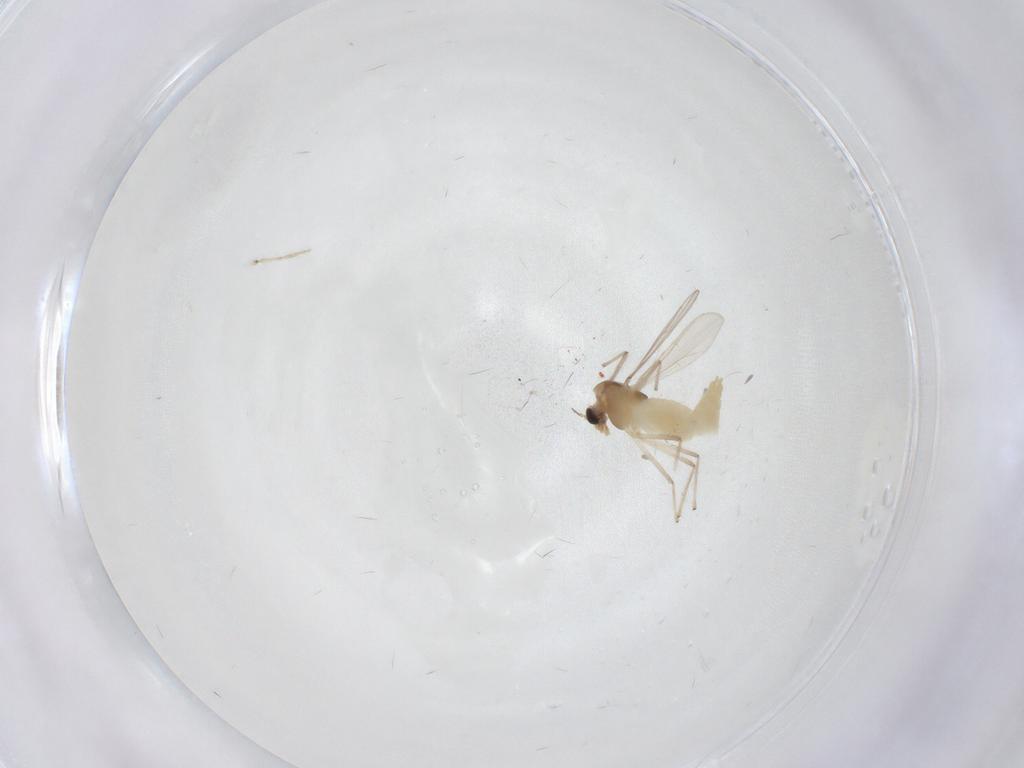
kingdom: Animalia
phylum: Arthropoda
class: Insecta
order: Diptera
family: Chironomidae
